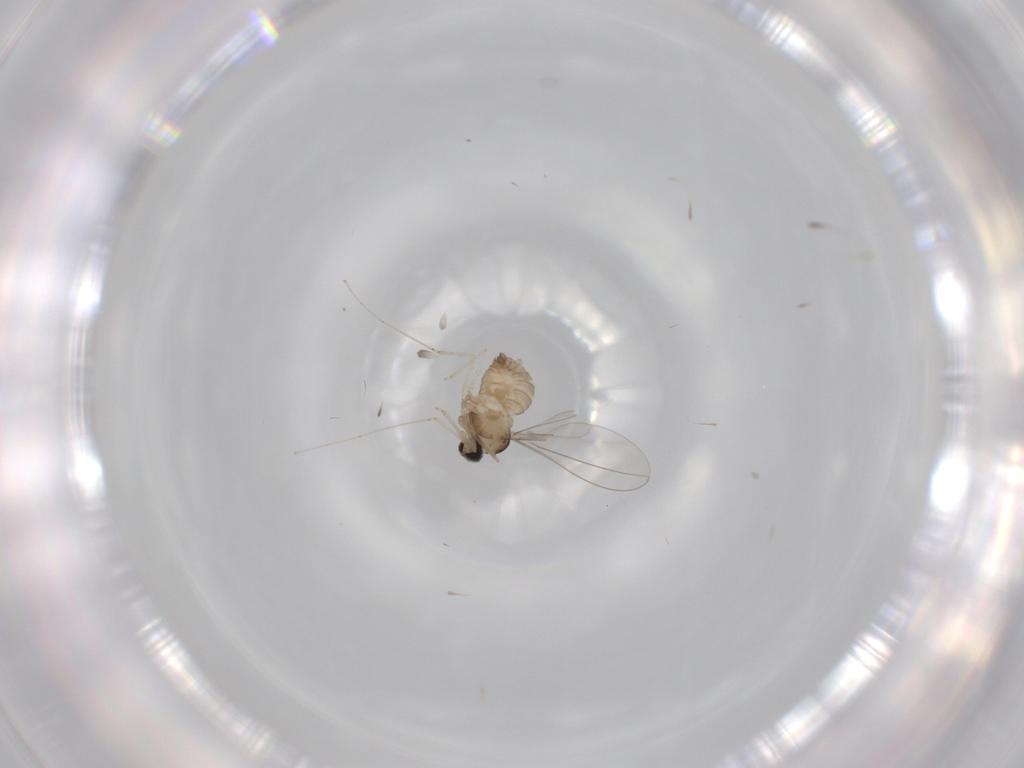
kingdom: Animalia
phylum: Arthropoda
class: Insecta
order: Diptera
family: Cecidomyiidae
